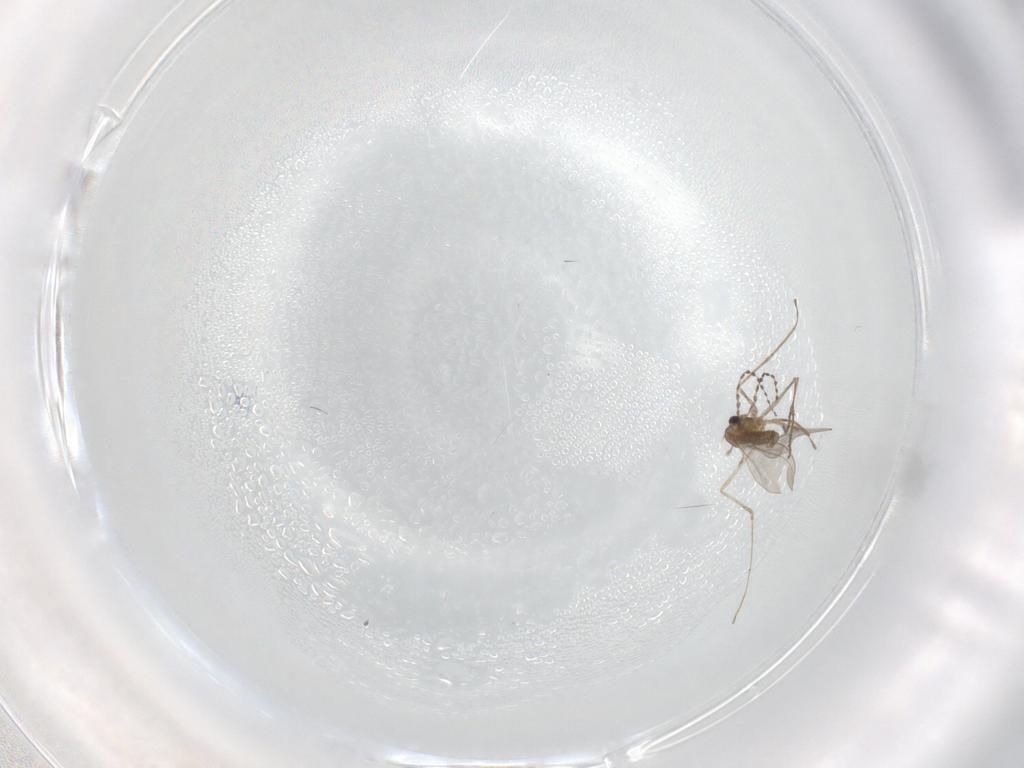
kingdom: Animalia
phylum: Arthropoda
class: Insecta
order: Diptera
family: Cecidomyiidae
